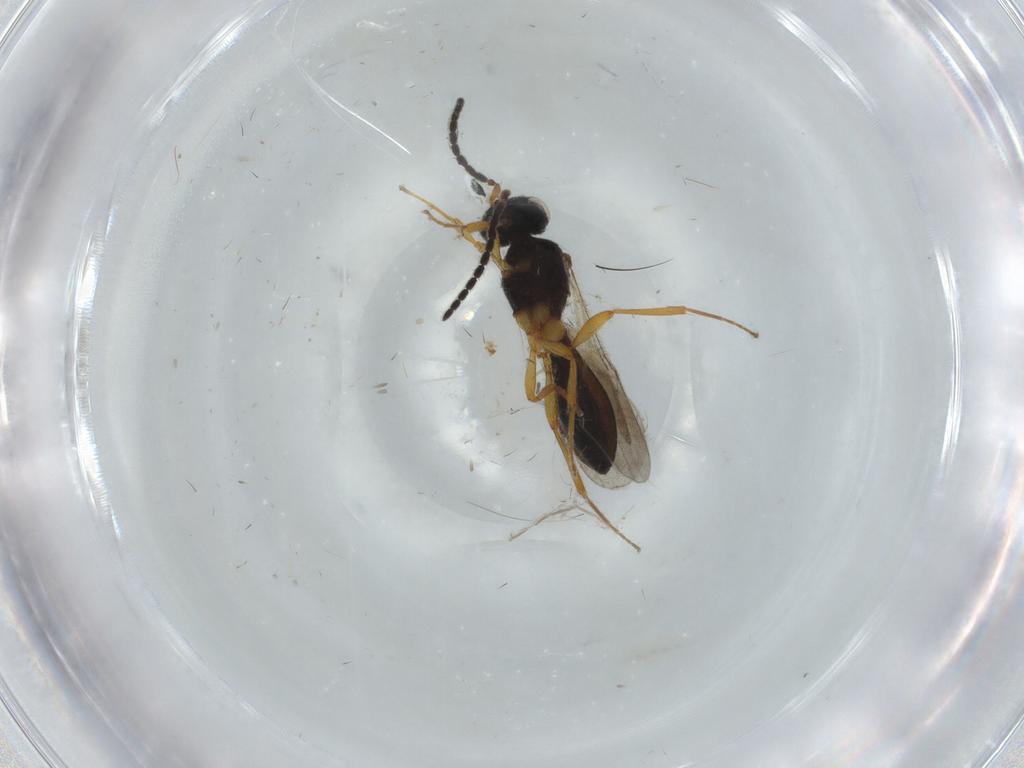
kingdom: Animalia
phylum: Arthropoda
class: Insecta
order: Hymenoptera
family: Scelionidae
